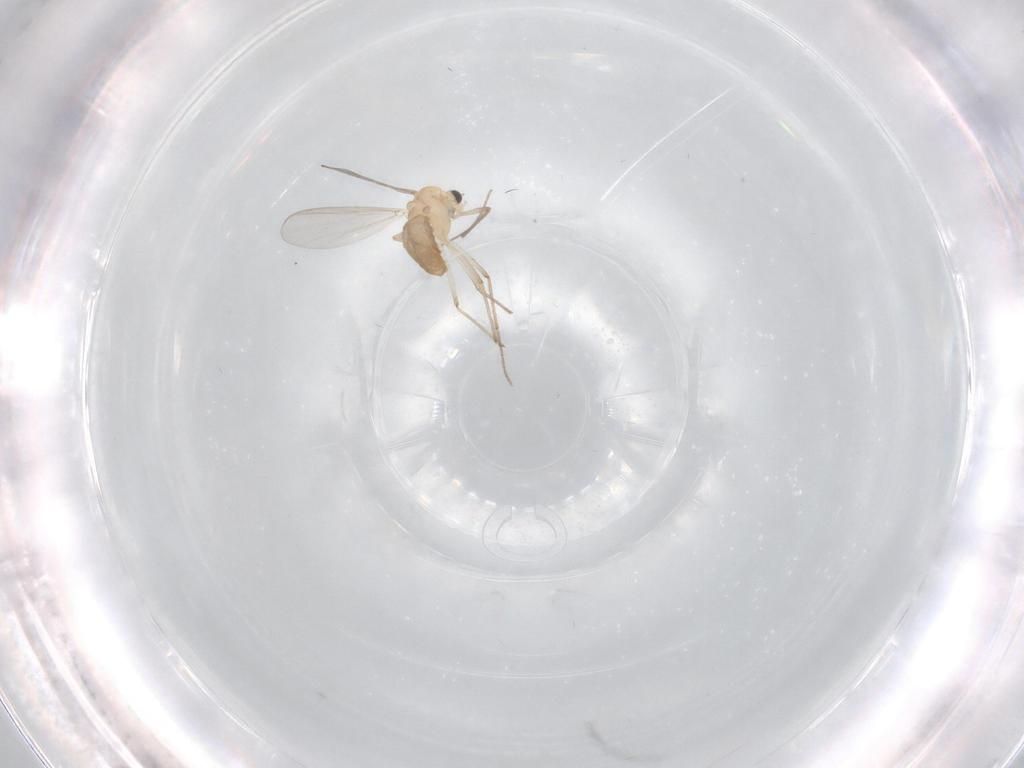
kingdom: Animalia
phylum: Arthropoda
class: Insecta
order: Diptera
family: Chironomidae
